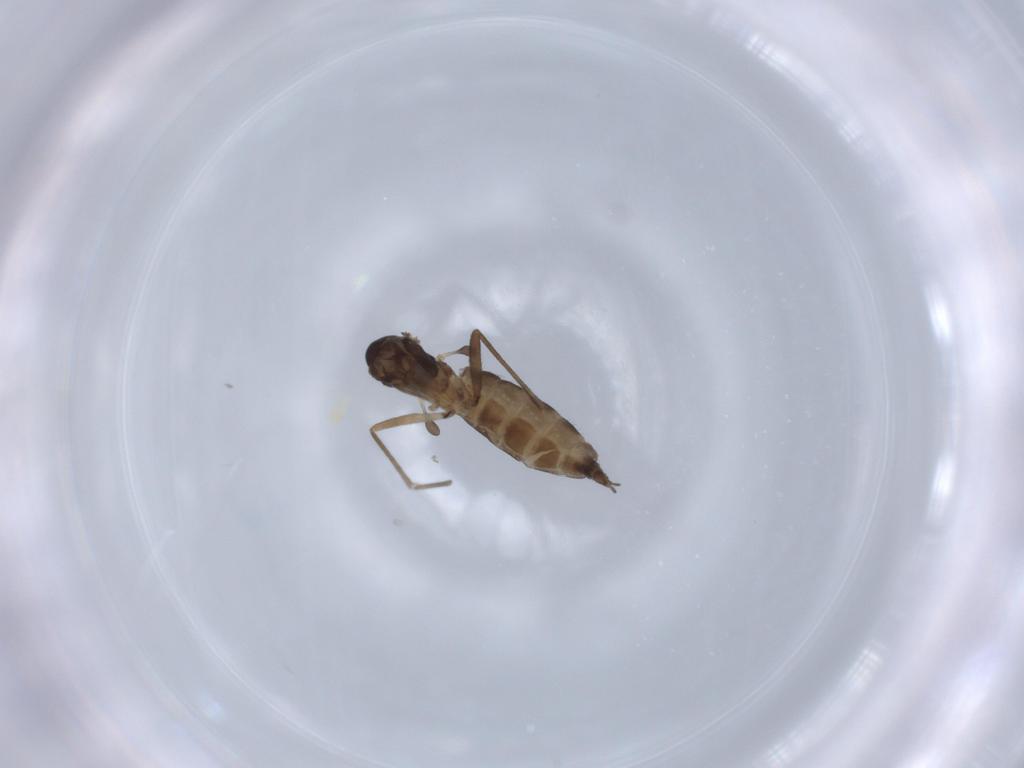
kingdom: Animalia
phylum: Arthropoda
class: Insecta
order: Diptera
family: Sciaridae
